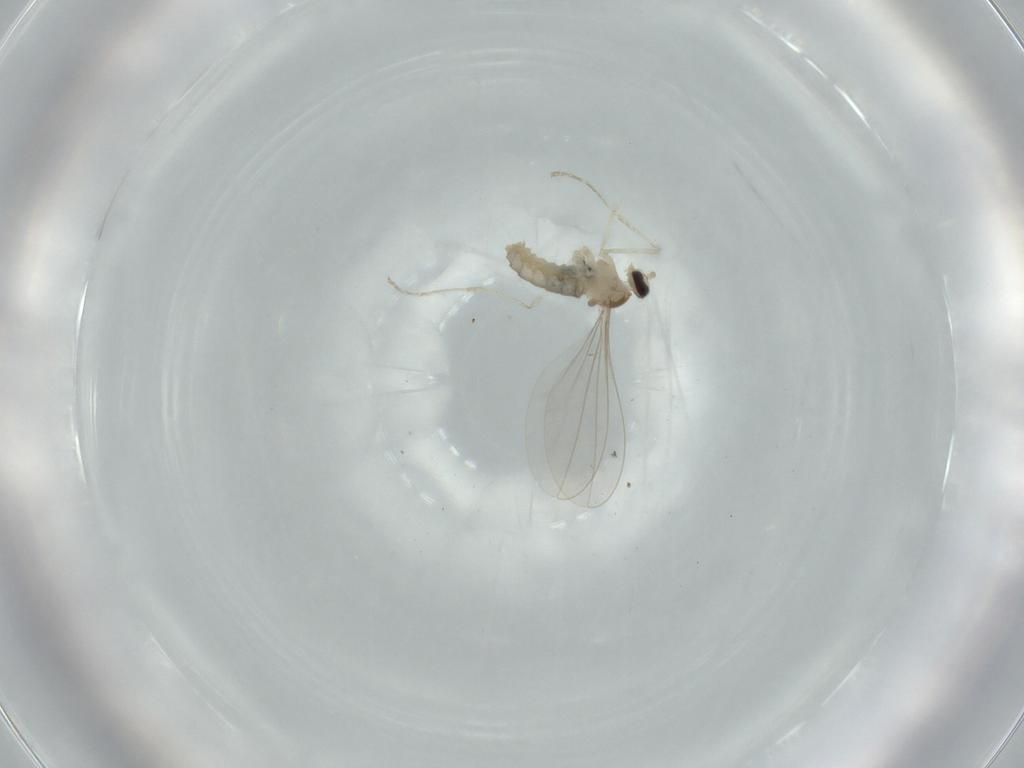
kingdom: Animalia
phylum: Arthropoda
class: Insecta
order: Diptera
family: Cecidomyiidae
